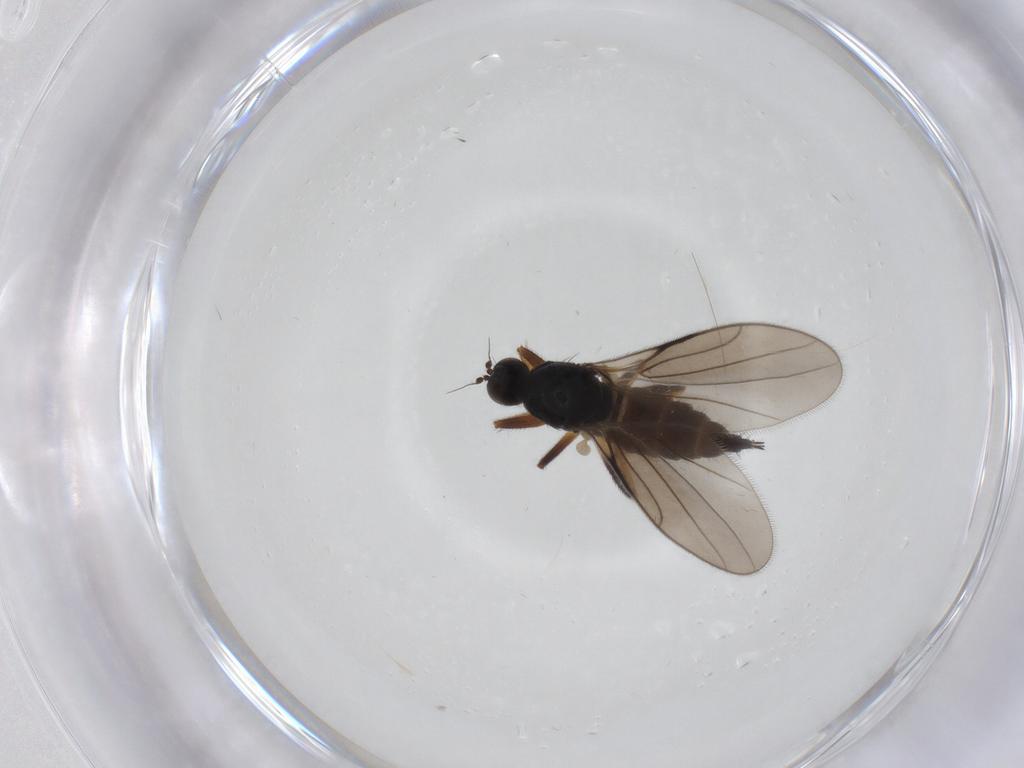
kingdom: Animalia
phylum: Arthropoda
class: Insecta
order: Diptera
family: Hybotidae
